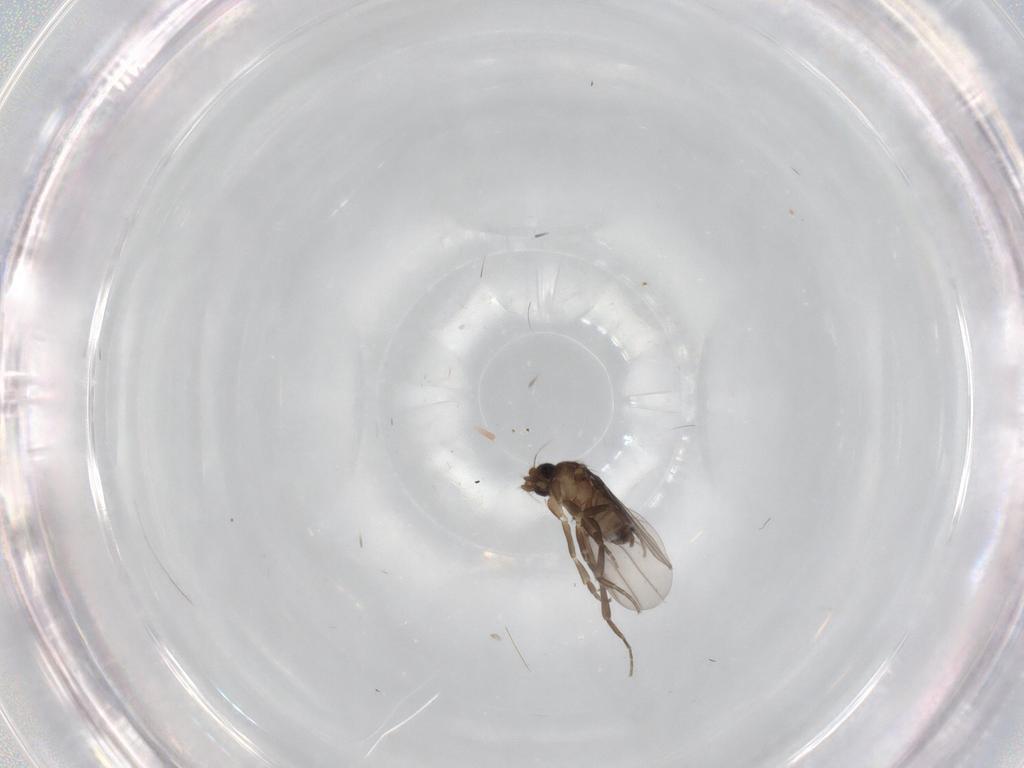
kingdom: Animalia
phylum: Arthropoda
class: Insecta
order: Diptera
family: Phoridae
